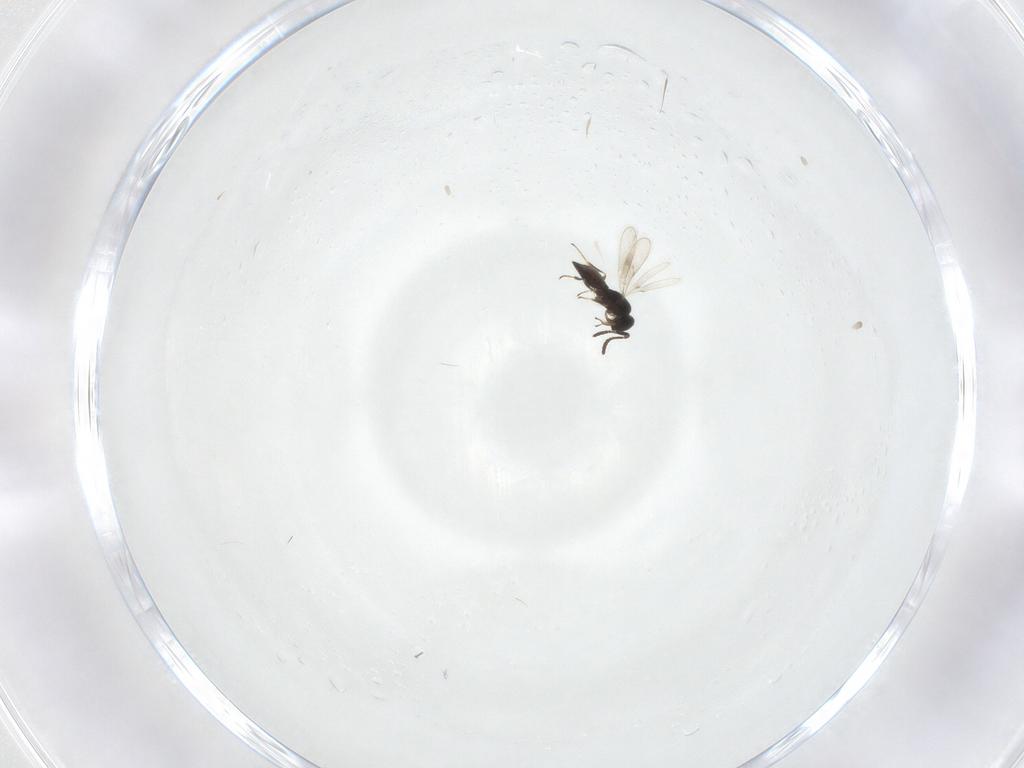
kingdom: Animalia
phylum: Arthropoda
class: Insecta
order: Hymenoptera
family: Scelionidae
